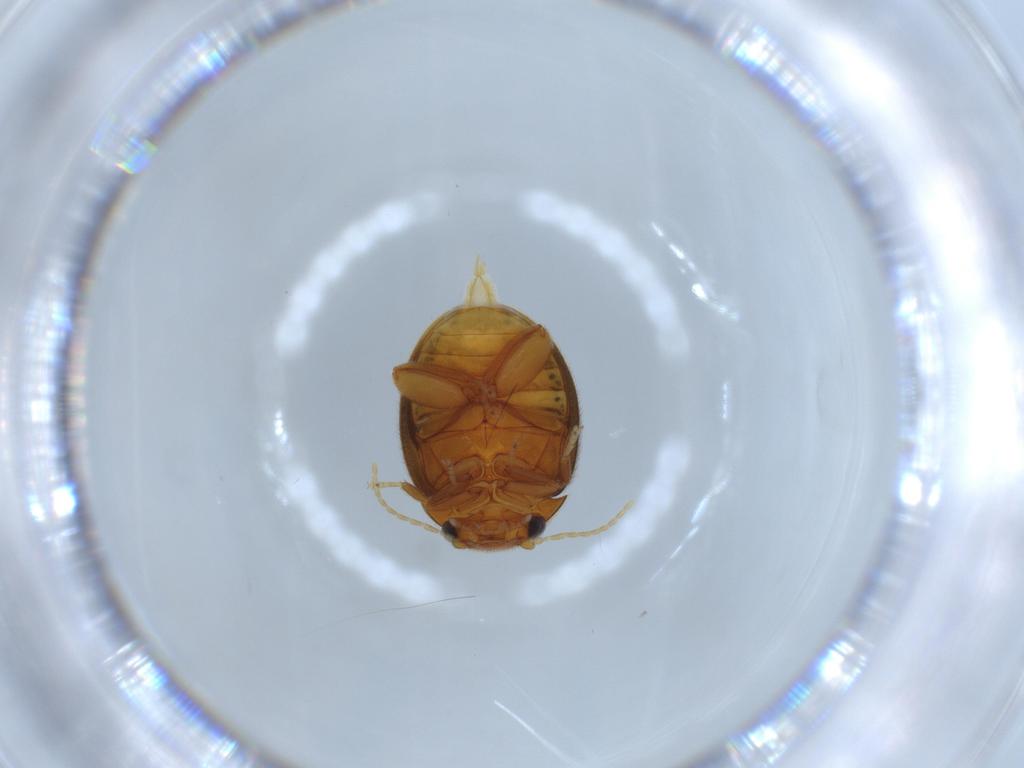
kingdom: Animalia
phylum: Arthropoda
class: Insecta
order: Coleoptera
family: Scirtidae
